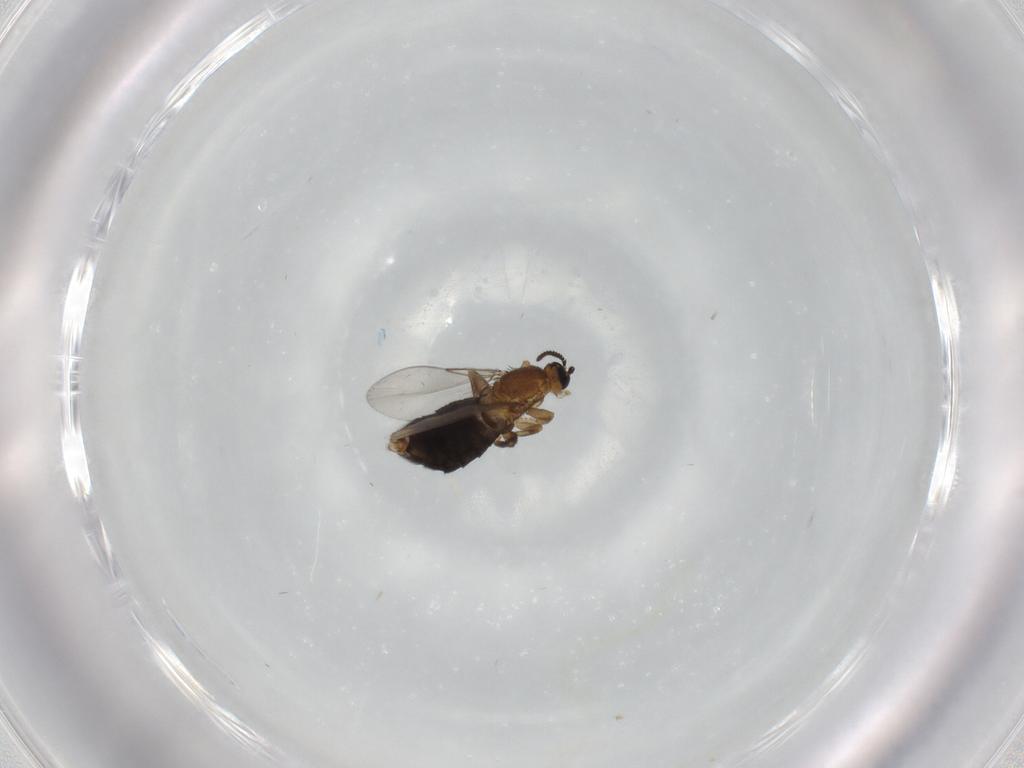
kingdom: Animalia
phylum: Arthropoda
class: Insecta
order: Diptera
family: Scatopsidae
